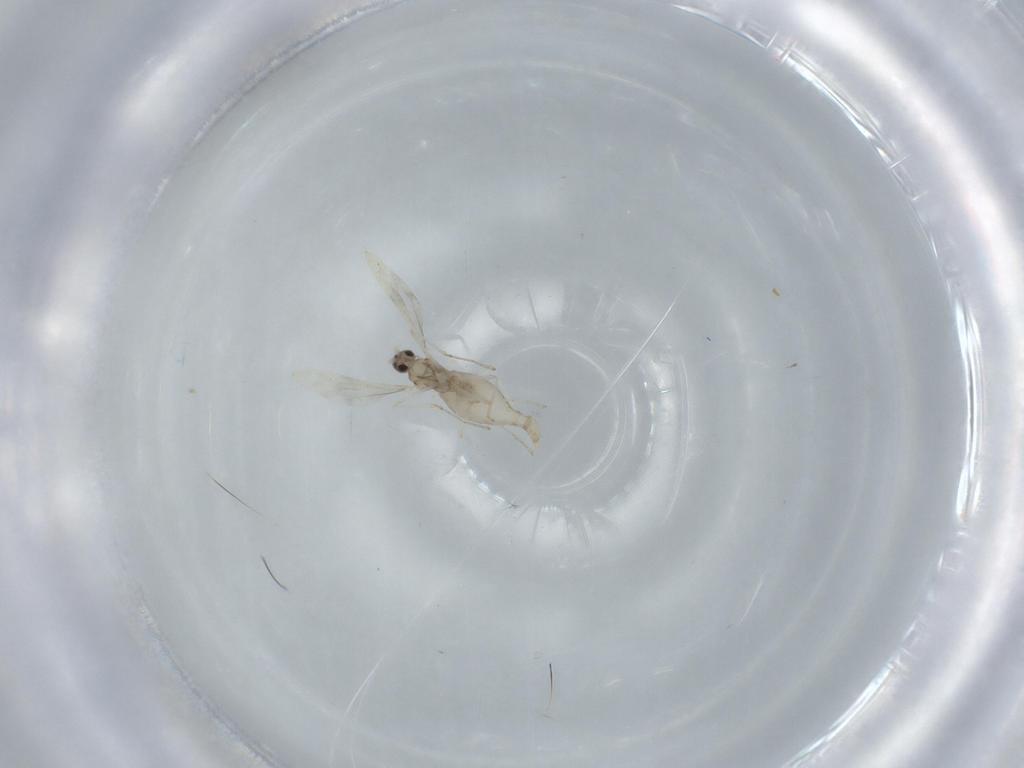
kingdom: Animalia
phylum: Arthropoda
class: Insecta
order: Diptera
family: Cecidomyiidae
